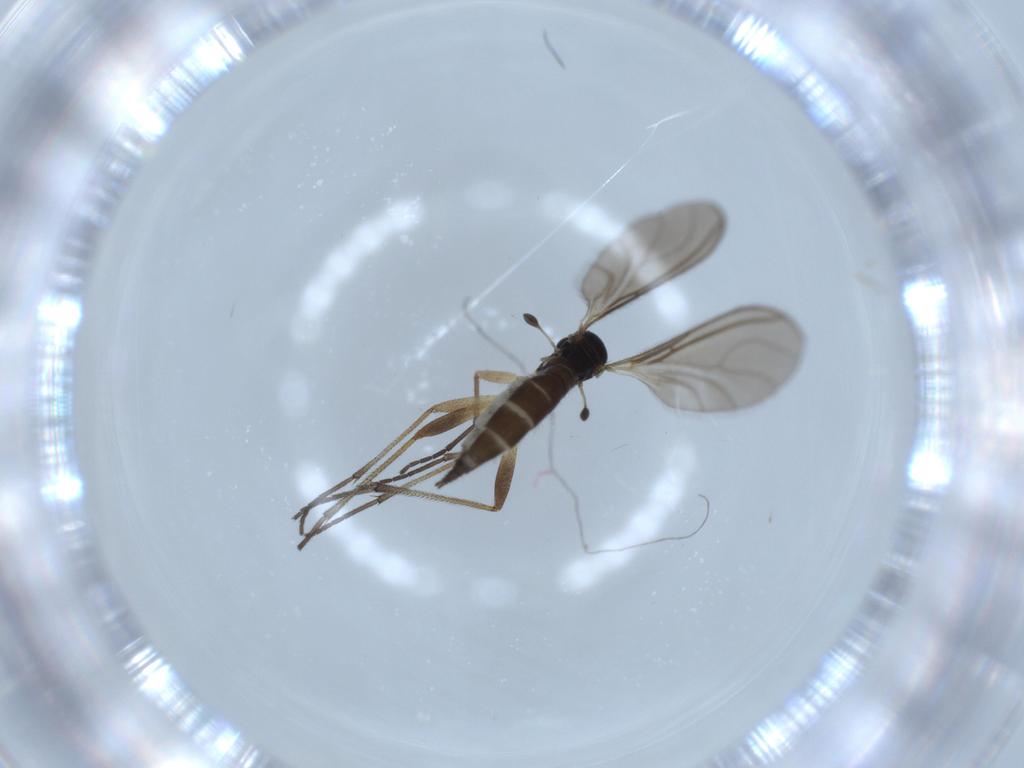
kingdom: Animalia
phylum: Arthropoda
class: Insecta
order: Diptera
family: Sciaridae
